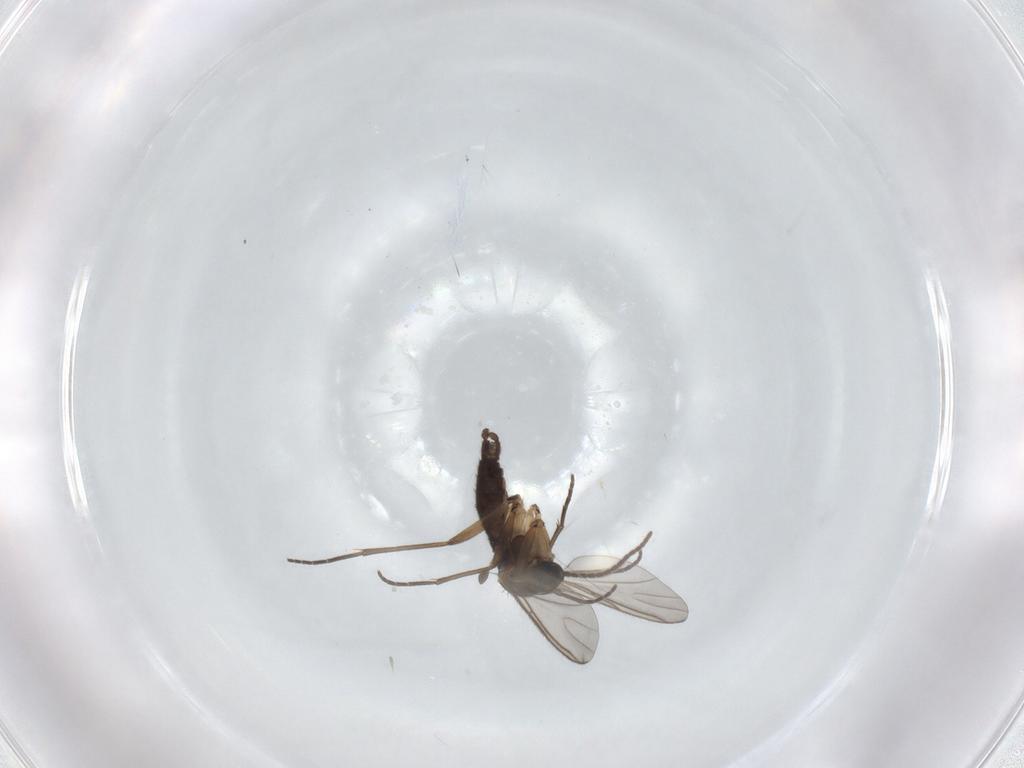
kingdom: Animalia
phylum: Arthropoda
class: Insecta
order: Diptera
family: Sciaridae
